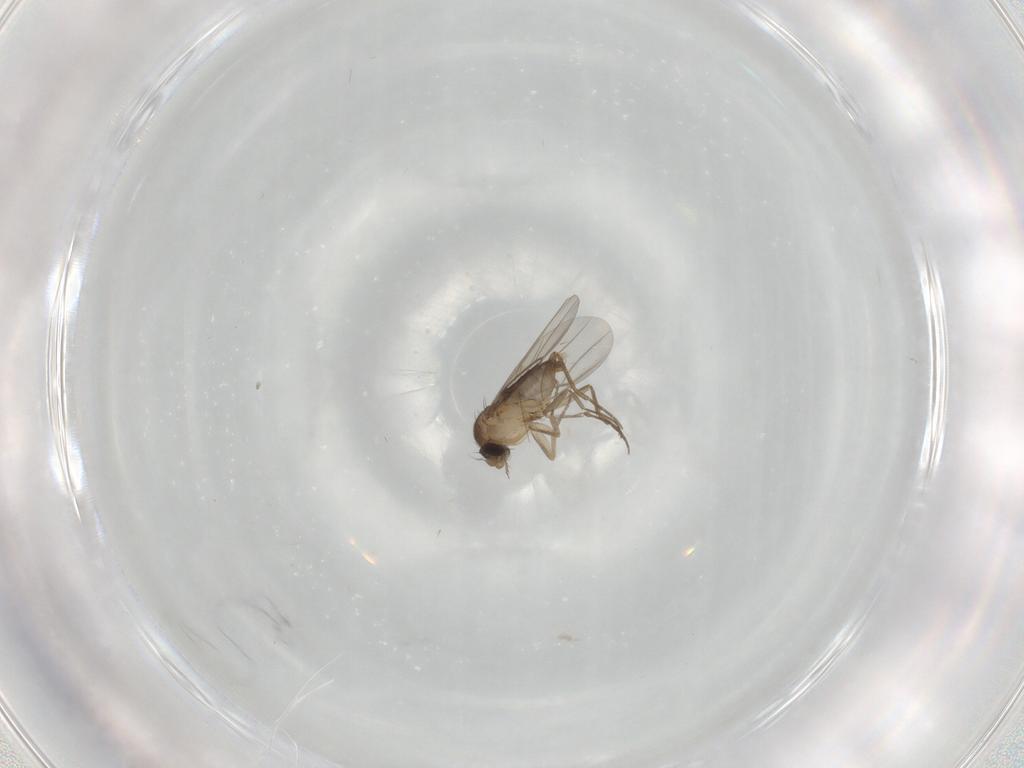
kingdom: Animalia
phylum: Arthropoda
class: Insecta
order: Diptera
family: Phoridae
